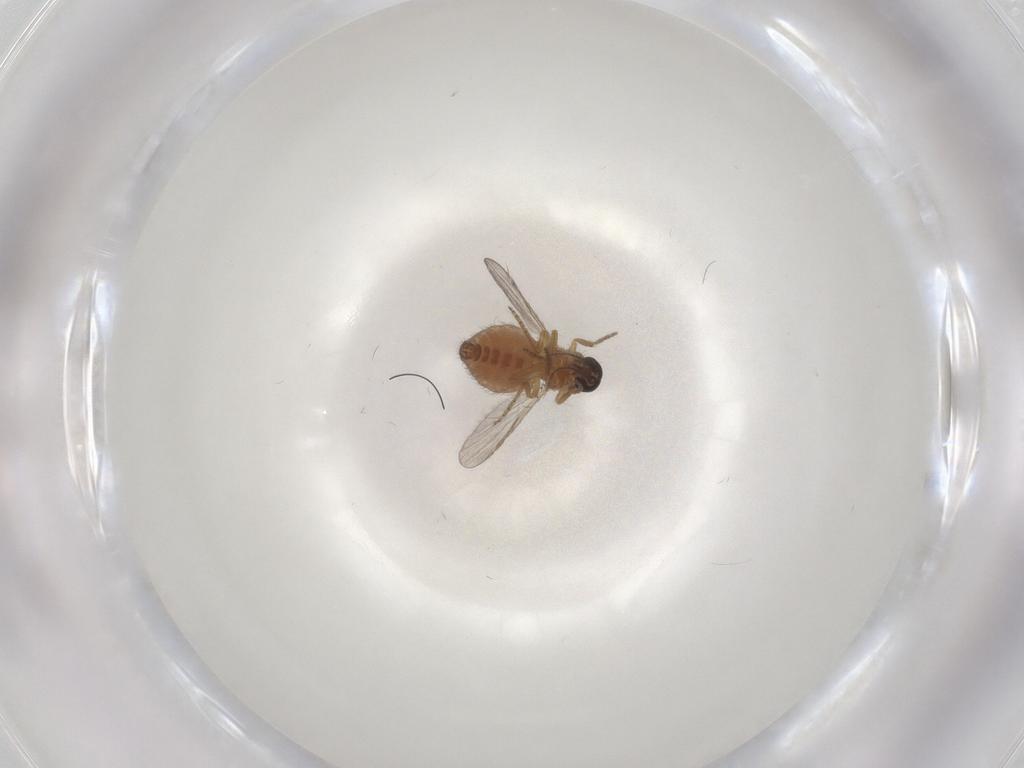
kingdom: Animalia
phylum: Arthropoda
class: Insecta
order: Diptera
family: Ceratopogonidae
